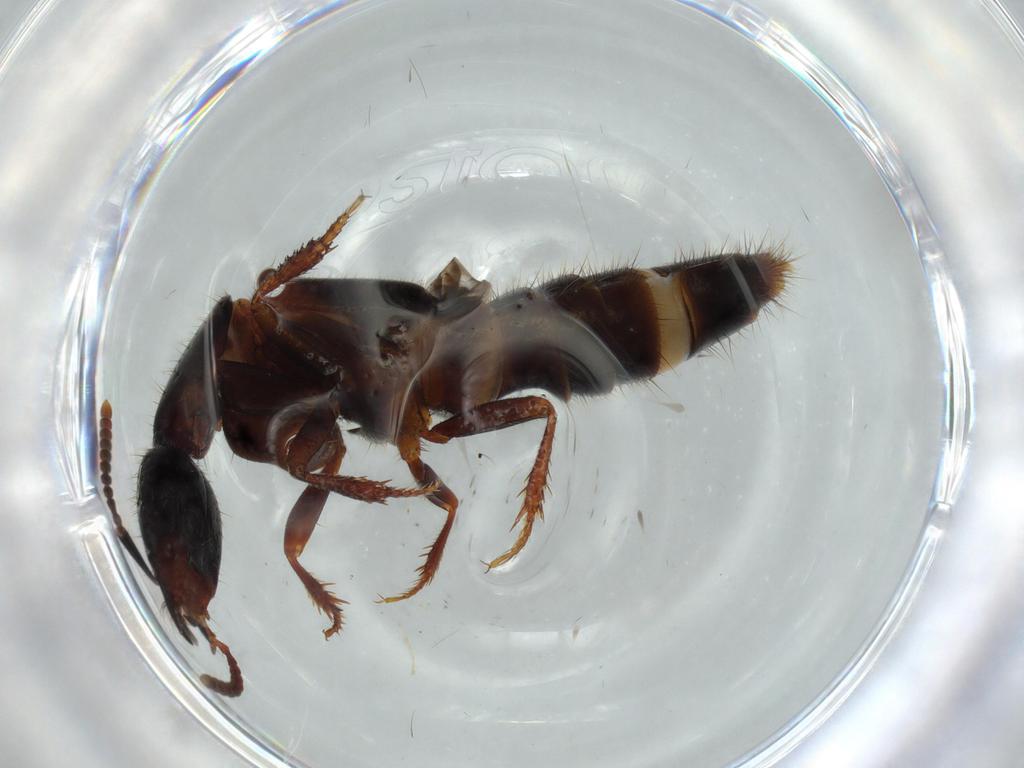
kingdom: Animalia
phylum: Arthropoda
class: Insecta
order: Coleoptera
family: Staphylinidae
